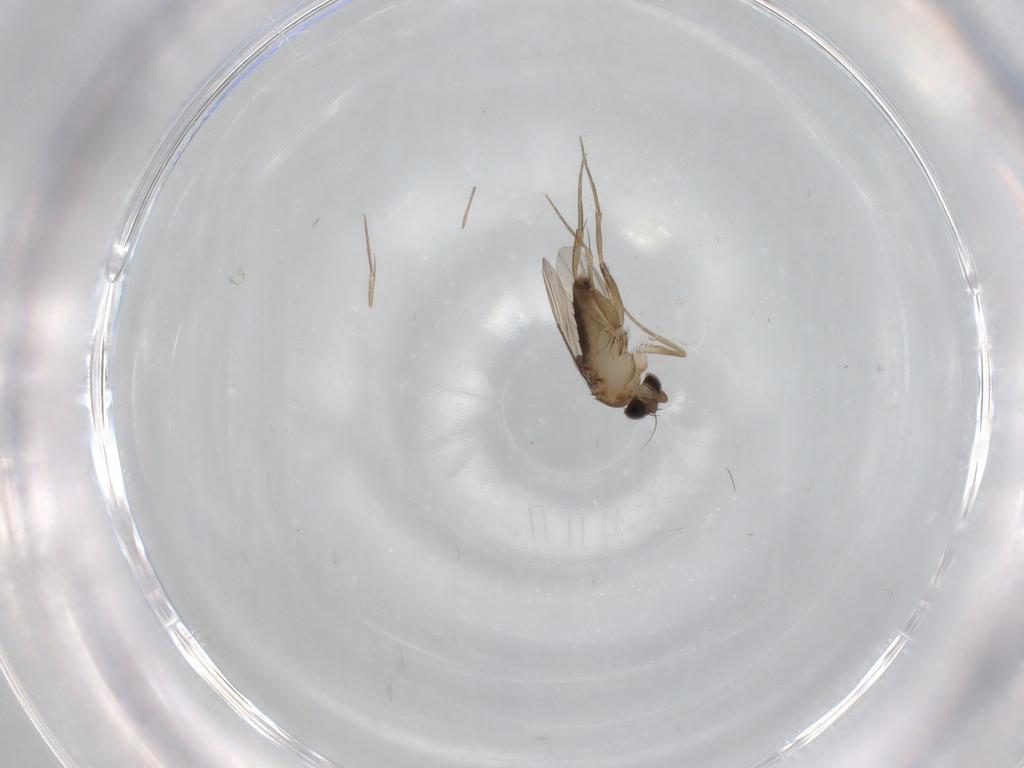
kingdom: Animalia
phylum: Arthropoda
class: Insecta
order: Diptera
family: Phoridae
